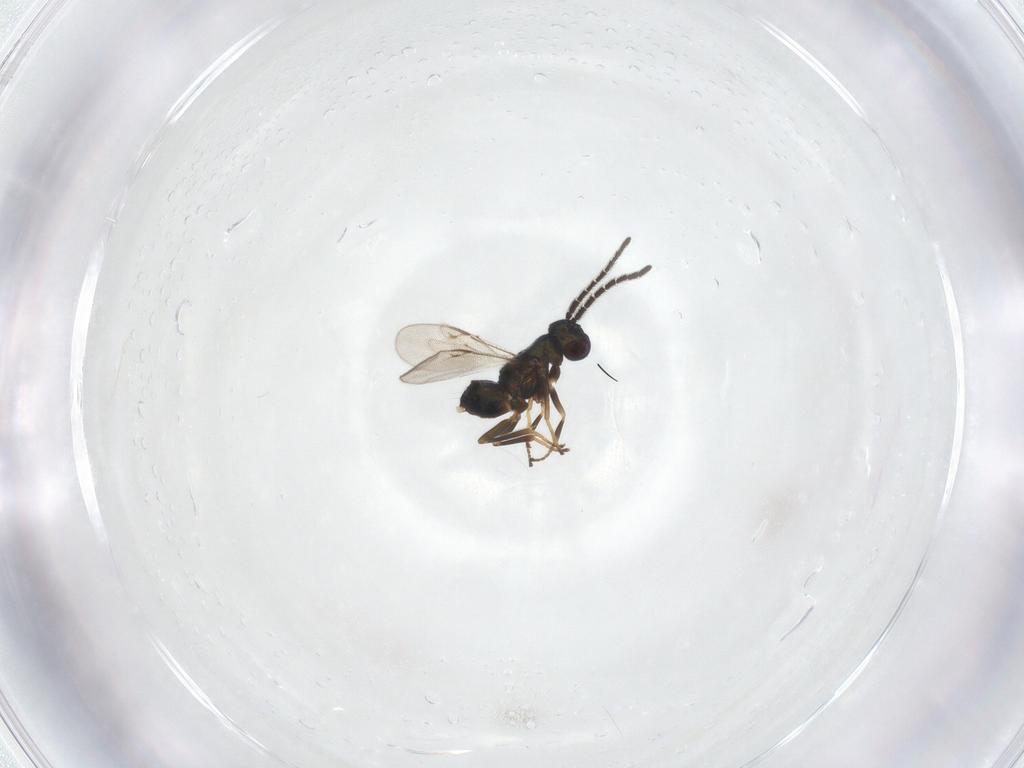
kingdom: Animalia
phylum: Arthropoda
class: Insecta
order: Hymenoptera
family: Encyrtidae
